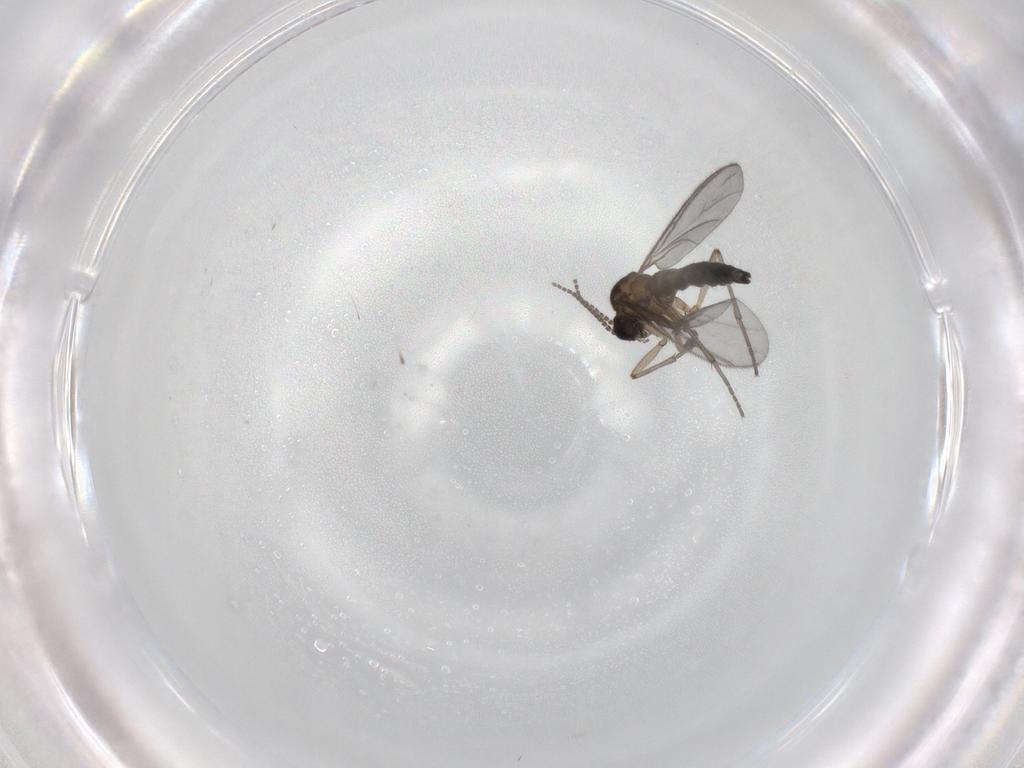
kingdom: Animalia
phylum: Arthropoda
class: Insecta
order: Diptera
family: Sciaridae
